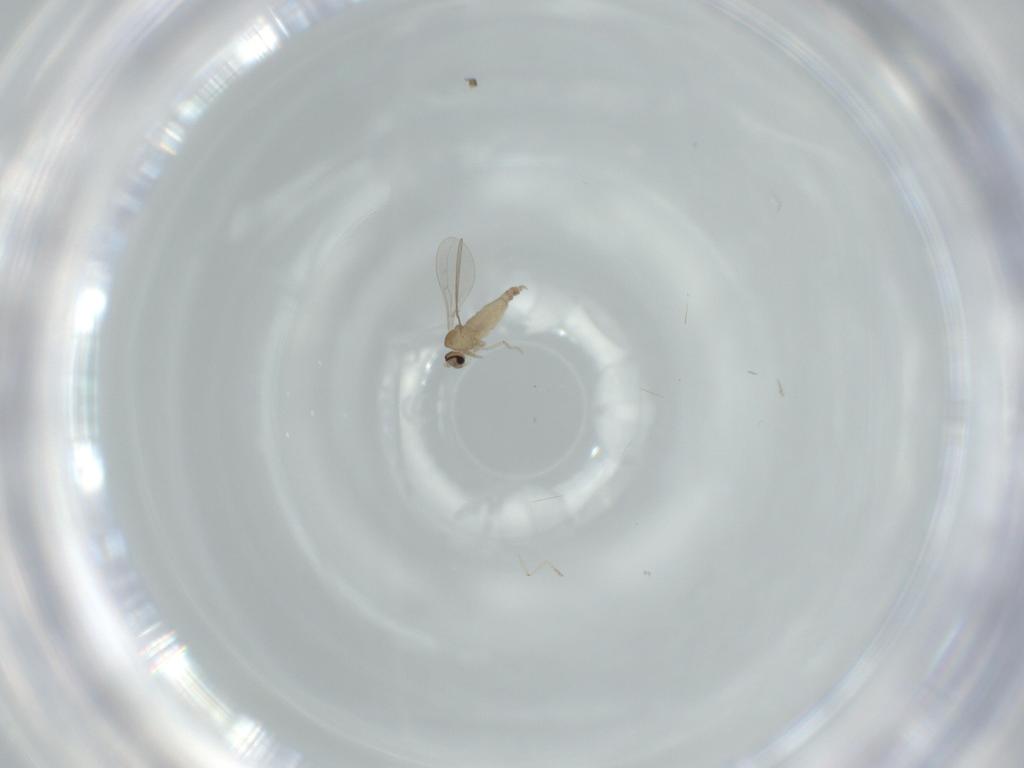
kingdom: Animalia
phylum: Arthropoda
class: Insecta
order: Diptera
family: Cecidomyiidae
